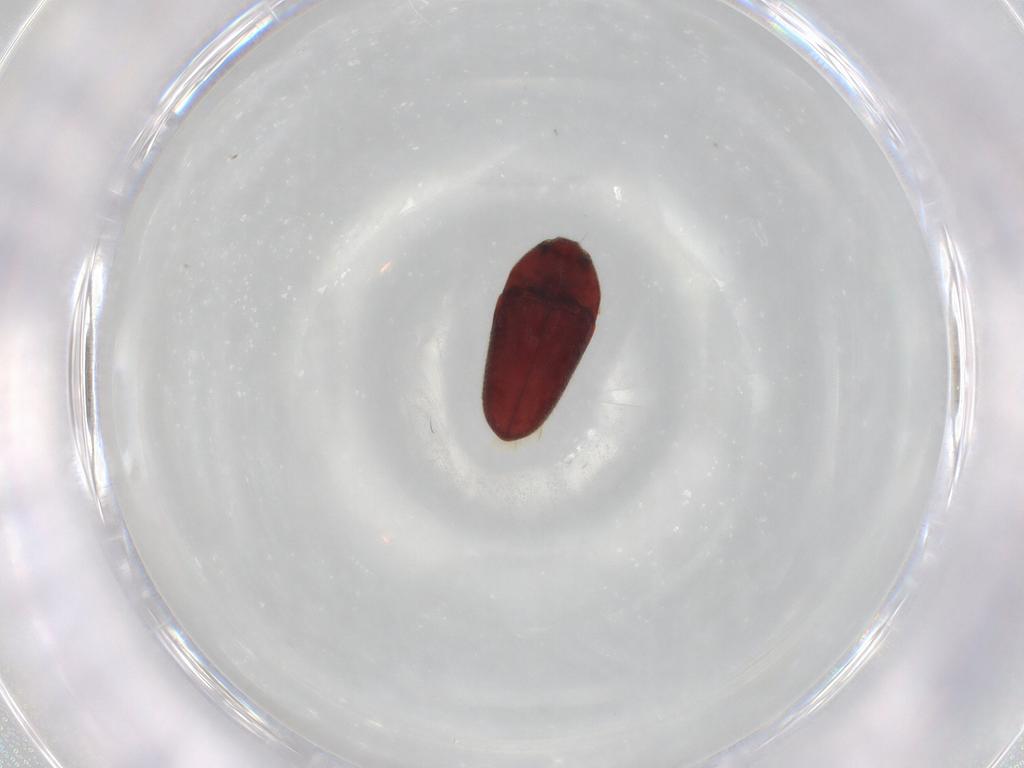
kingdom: Animalia
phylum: Arthropoda
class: Insecta
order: Coleoptera
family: Throscidae
